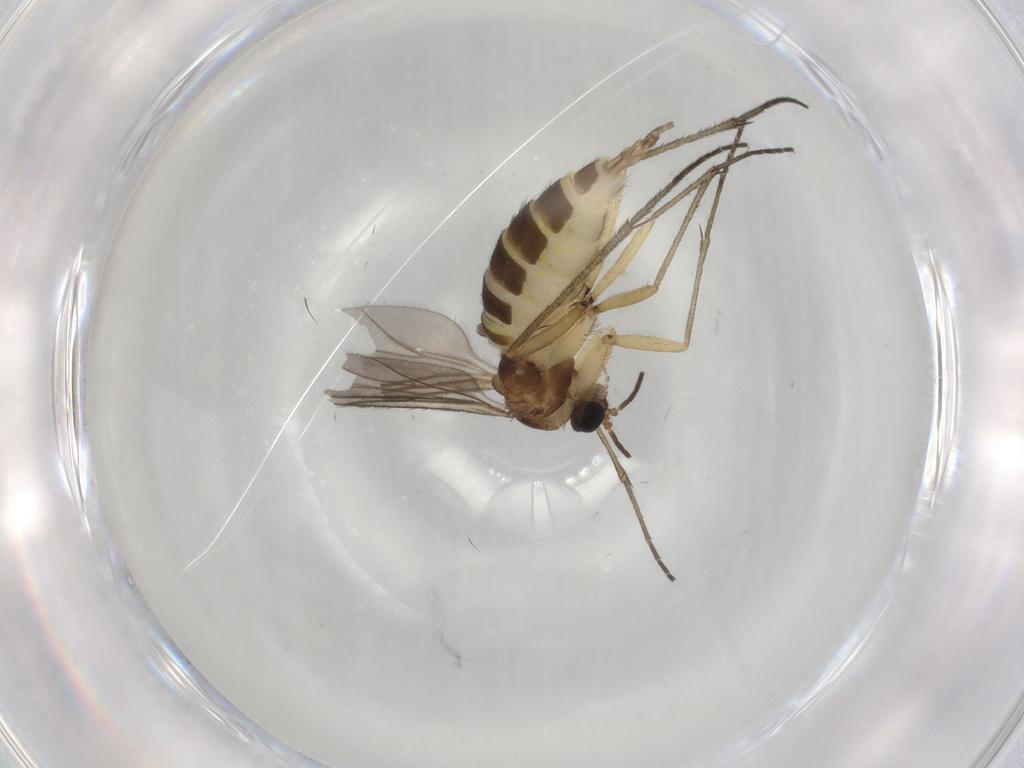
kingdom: Animalia
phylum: Arthropoda
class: Insecta
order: Diptera
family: Sciaridae
